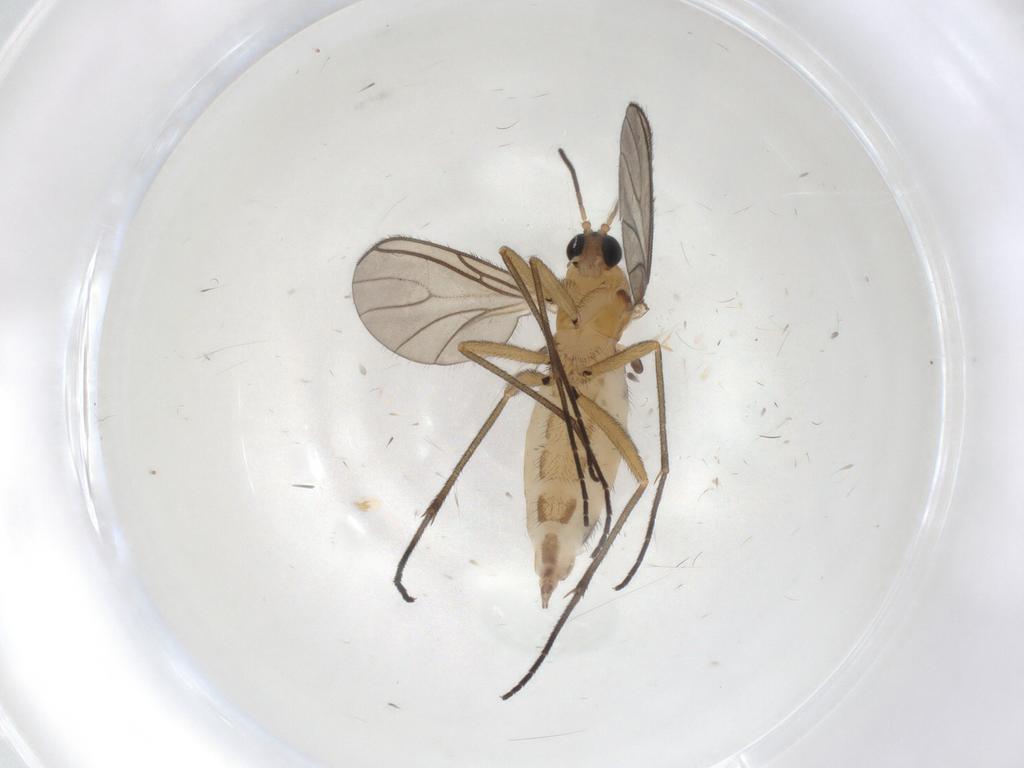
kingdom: Animalia
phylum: Arthropoda
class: Insecta
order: Diptera
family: Sciaridae
